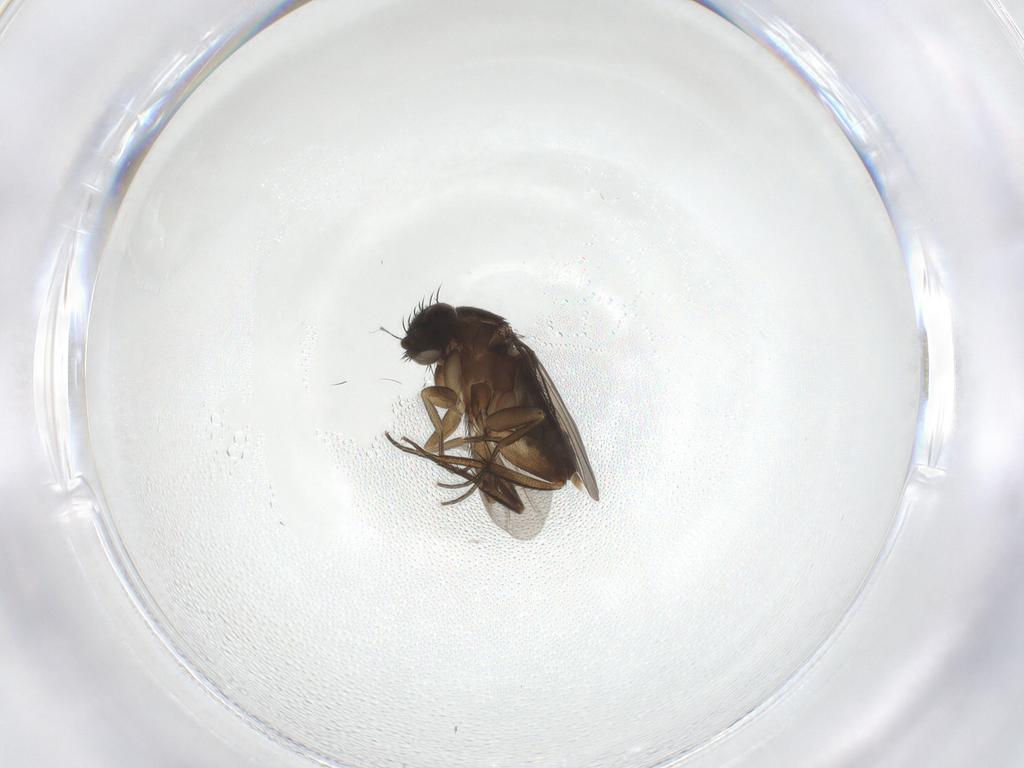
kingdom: Animalia
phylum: Arthropoda
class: Insecta
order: Diptera
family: Phoridae
